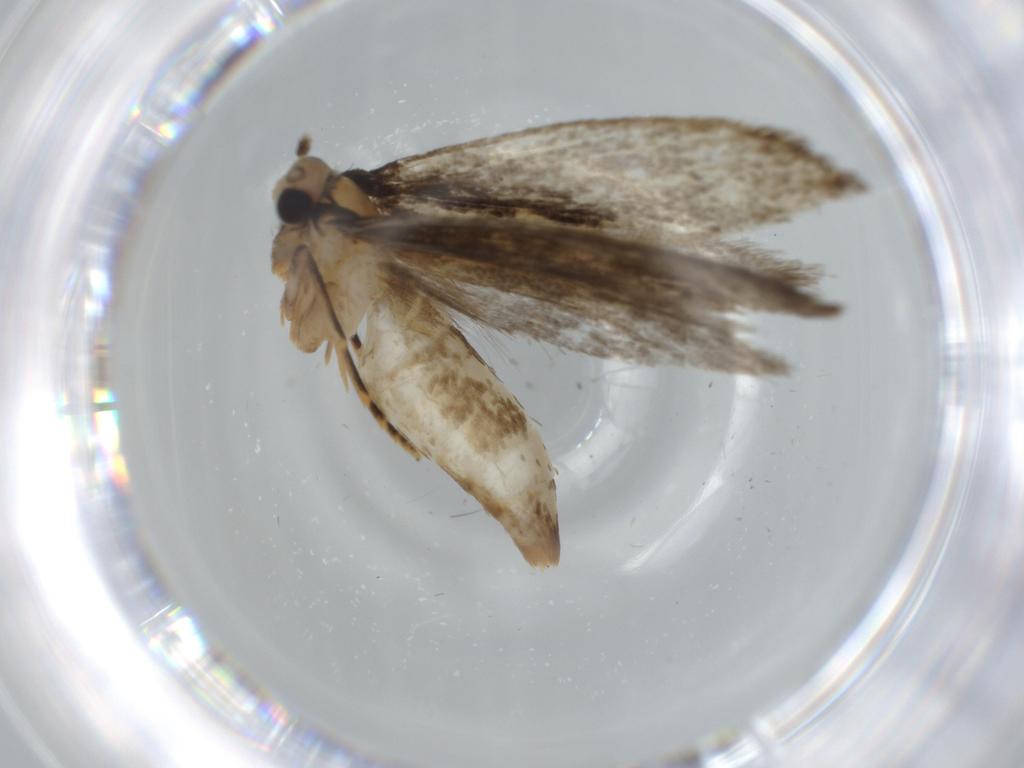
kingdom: Animalia
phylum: Arthropoda
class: Insecta
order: Lepidoptera
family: Tineidae
